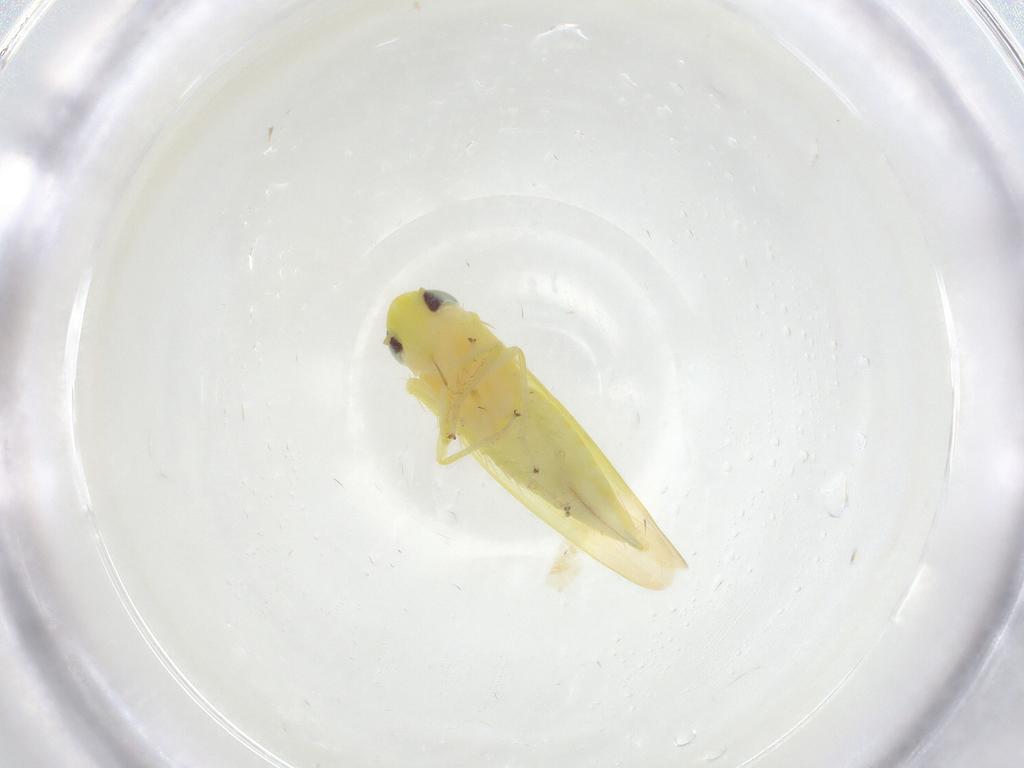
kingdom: Animalia
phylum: Arthropoda
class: Insecta
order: Hemiptera
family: Cicadellidae
